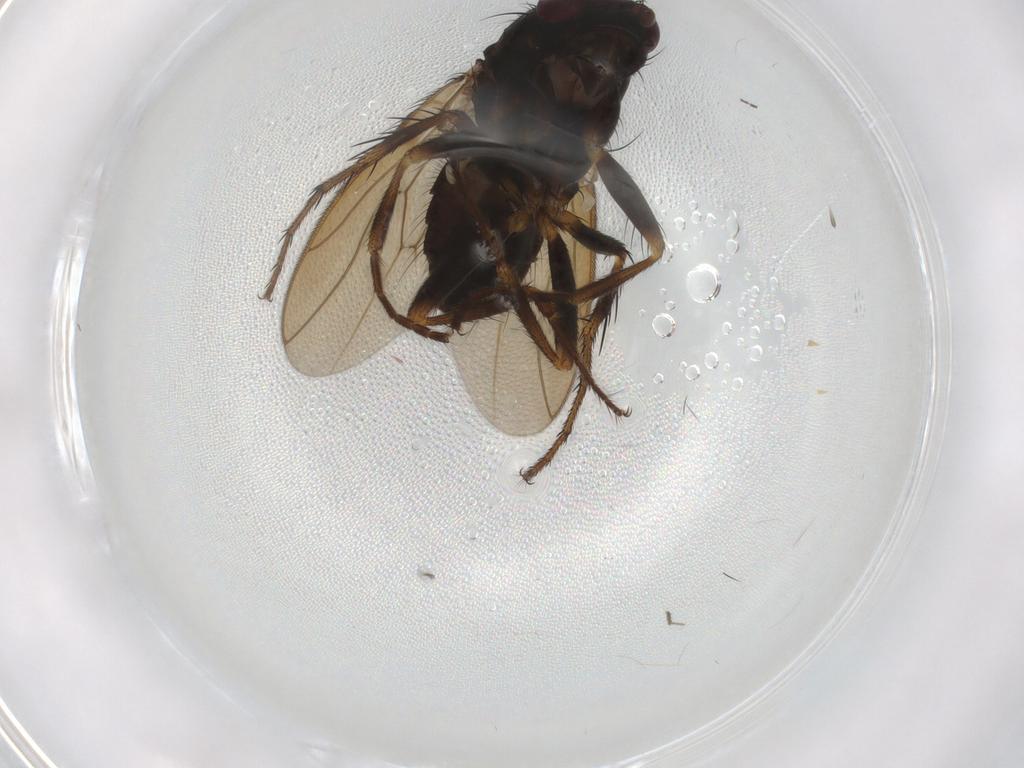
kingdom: Animalia
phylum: Arthropoda
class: Insecta
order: Diptera
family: Sphaeroceridae
